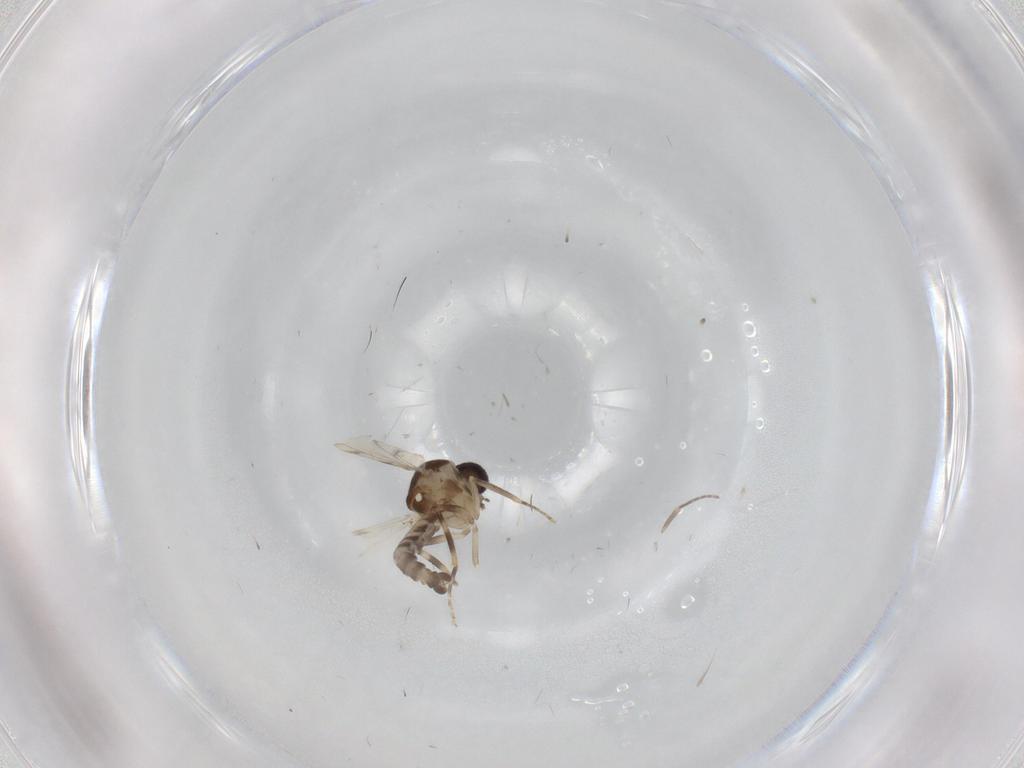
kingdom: Animalia
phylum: Arthropoda
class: Insecta
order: Diptera
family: Ceratopogonidae
